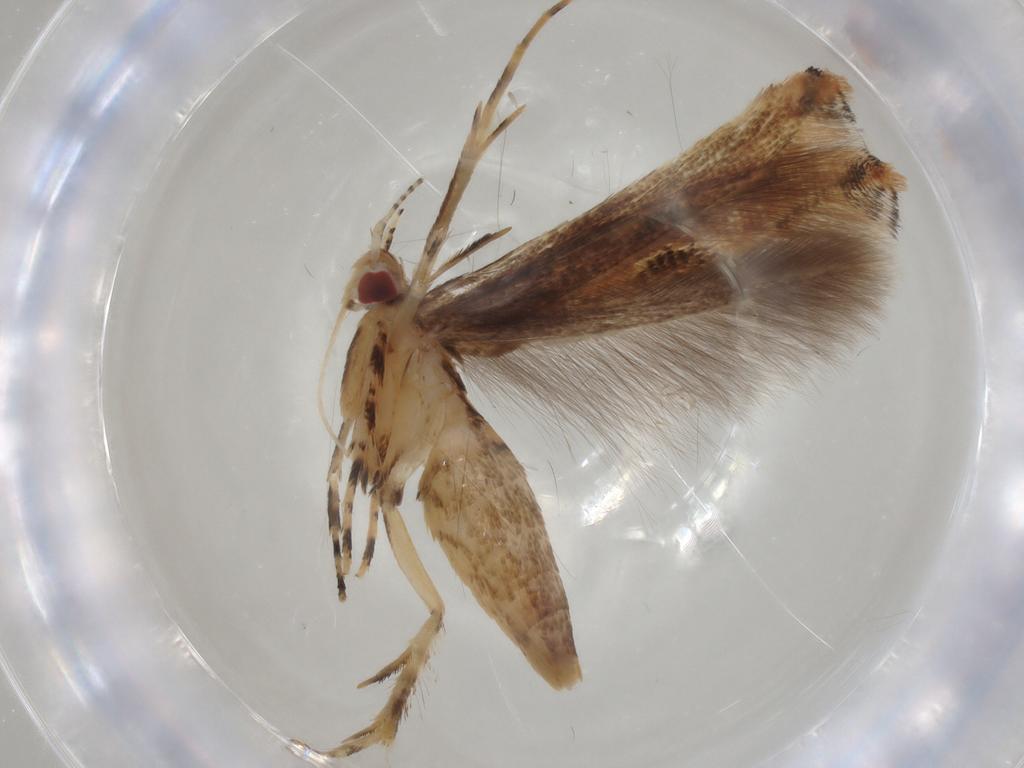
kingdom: Animalia
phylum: Arthropoda
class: Insecta
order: Lepidoptera
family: Cosmopterigidae
